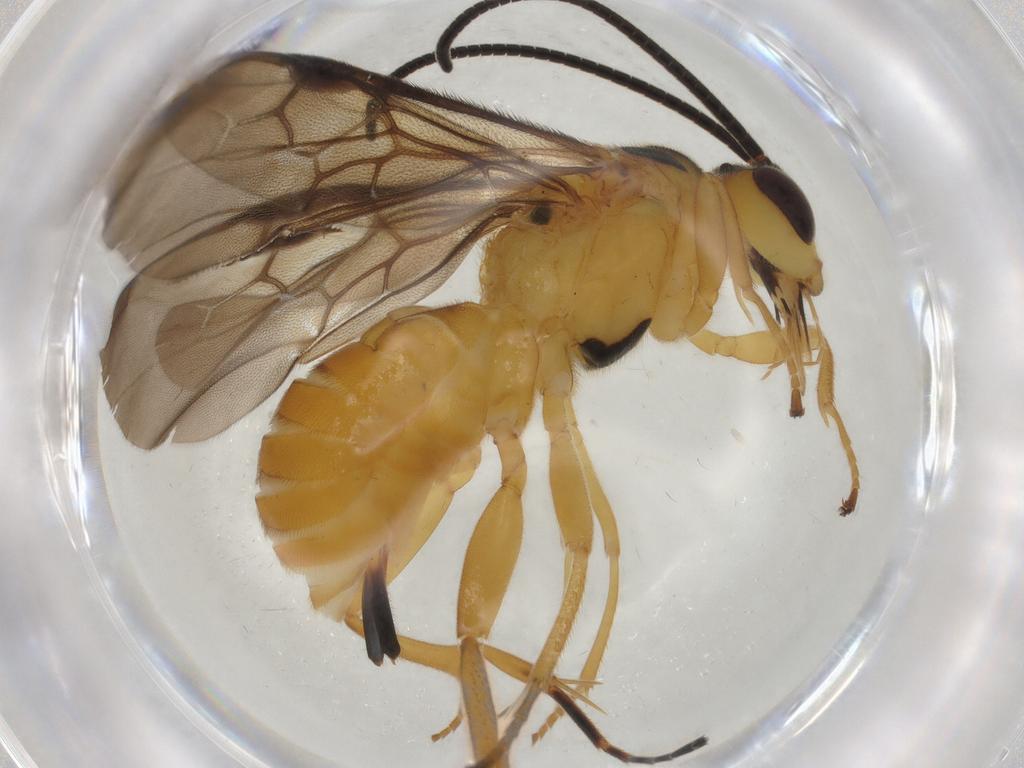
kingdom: Animalia
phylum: Arthropoda
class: Insecta
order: Hymenoptera
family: Braconidae
